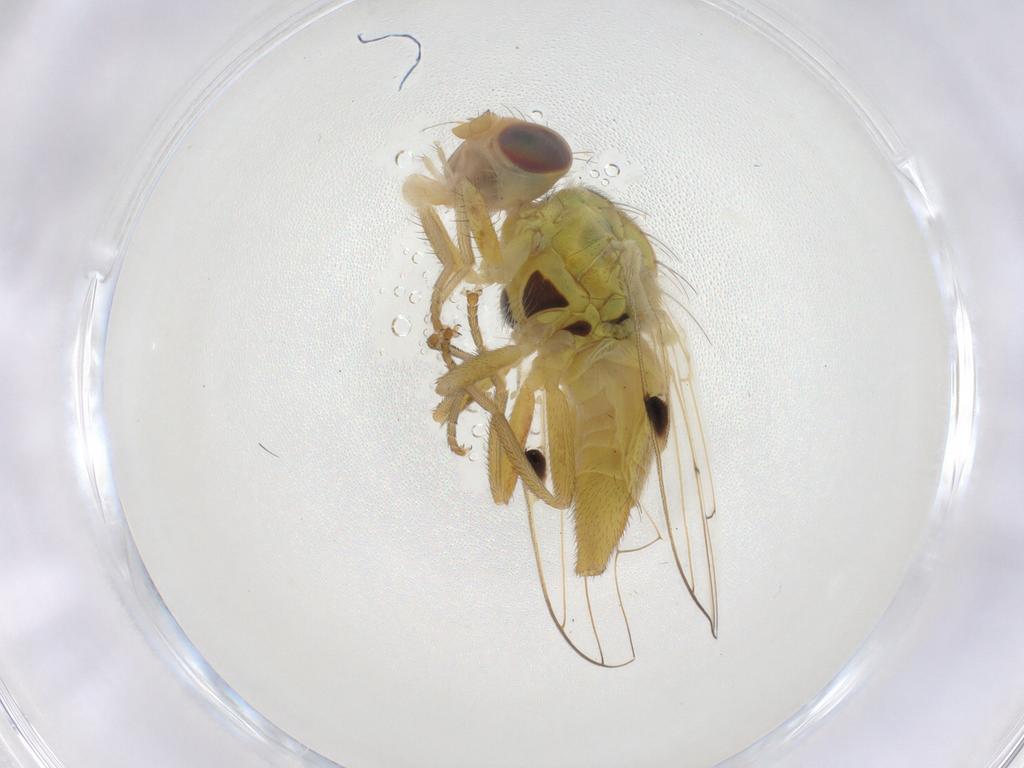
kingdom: Animalia
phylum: Arthropoda
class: Insecta
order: Diptera
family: Tephritidae
